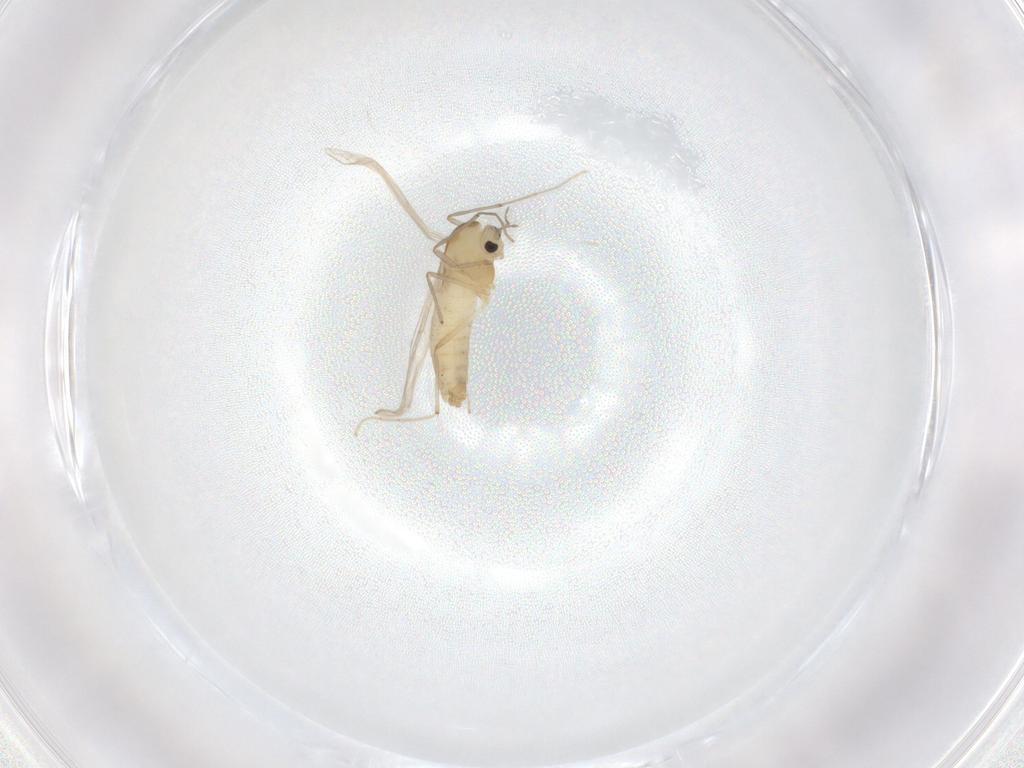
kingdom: Animalia
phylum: Arthropoda
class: Insecta
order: Diptera
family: Chironomidae
